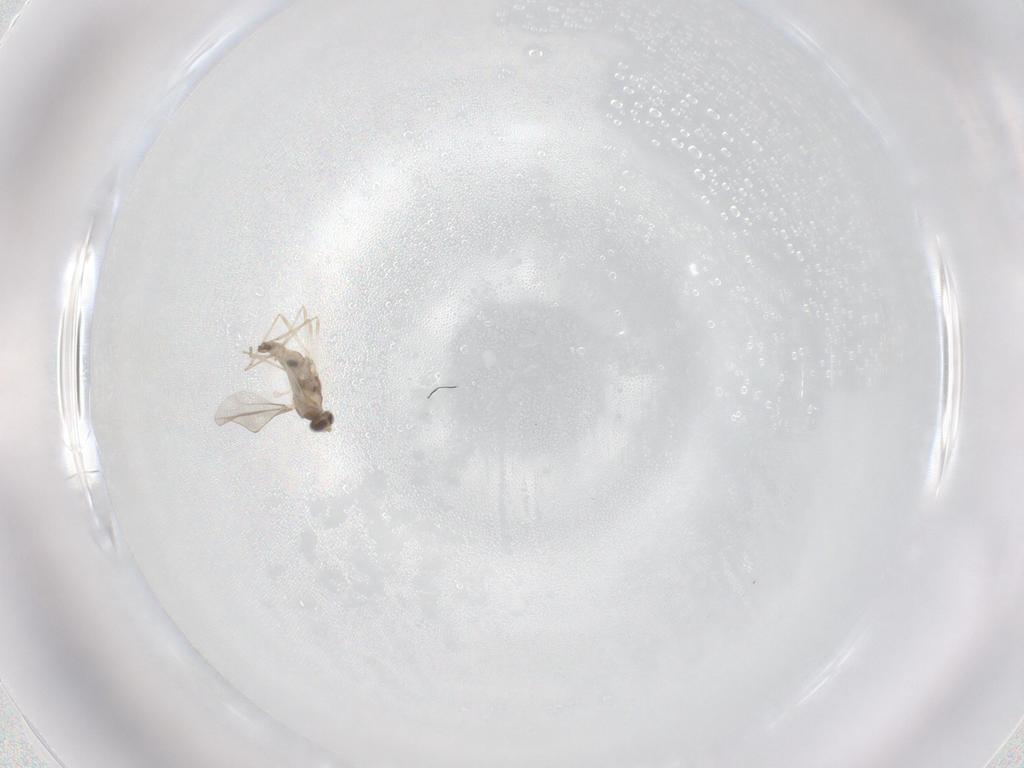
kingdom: Animalia
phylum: Arthropoda
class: Insecta
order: Diptera
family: Cecidomyiidae
